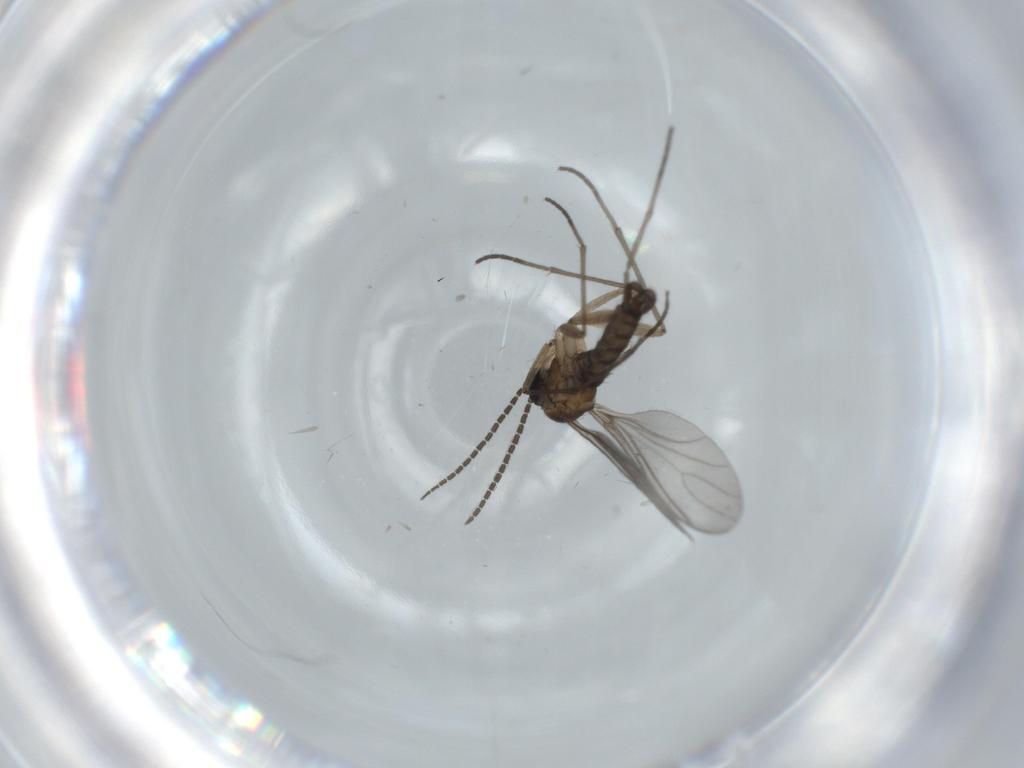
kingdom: Animalia
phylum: Arthropoda
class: Insecta
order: Diptera
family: Sciaridae
